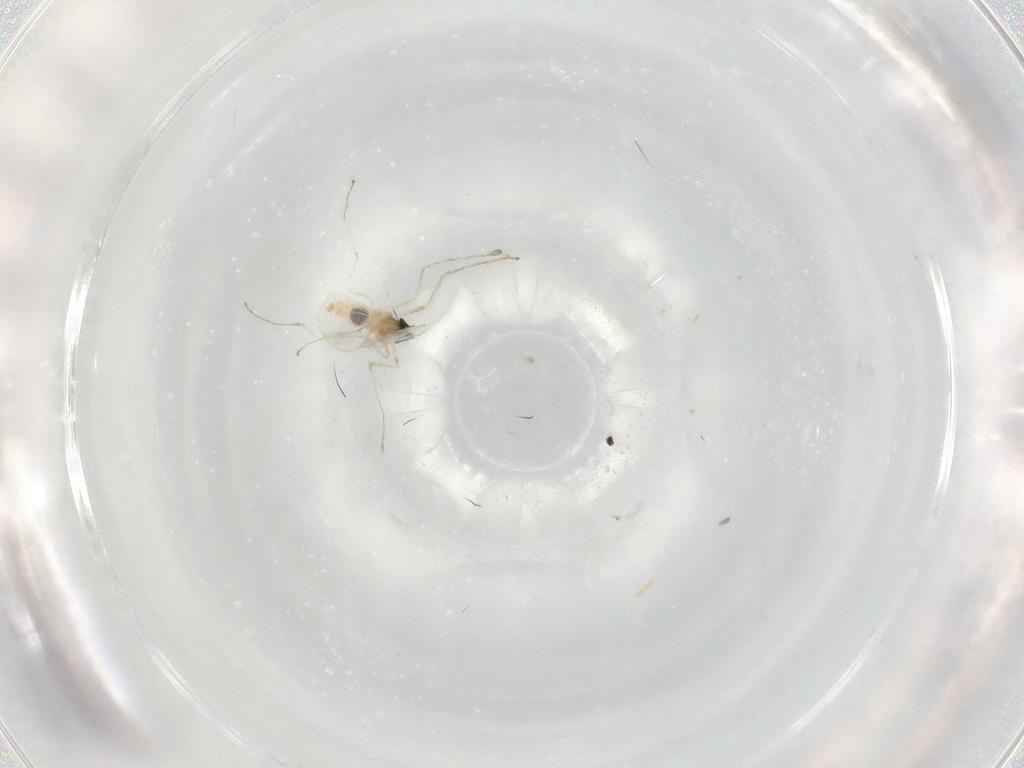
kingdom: Animalia
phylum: Arthropoda
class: Insecta
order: Diptera
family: Cecidomyiidae
